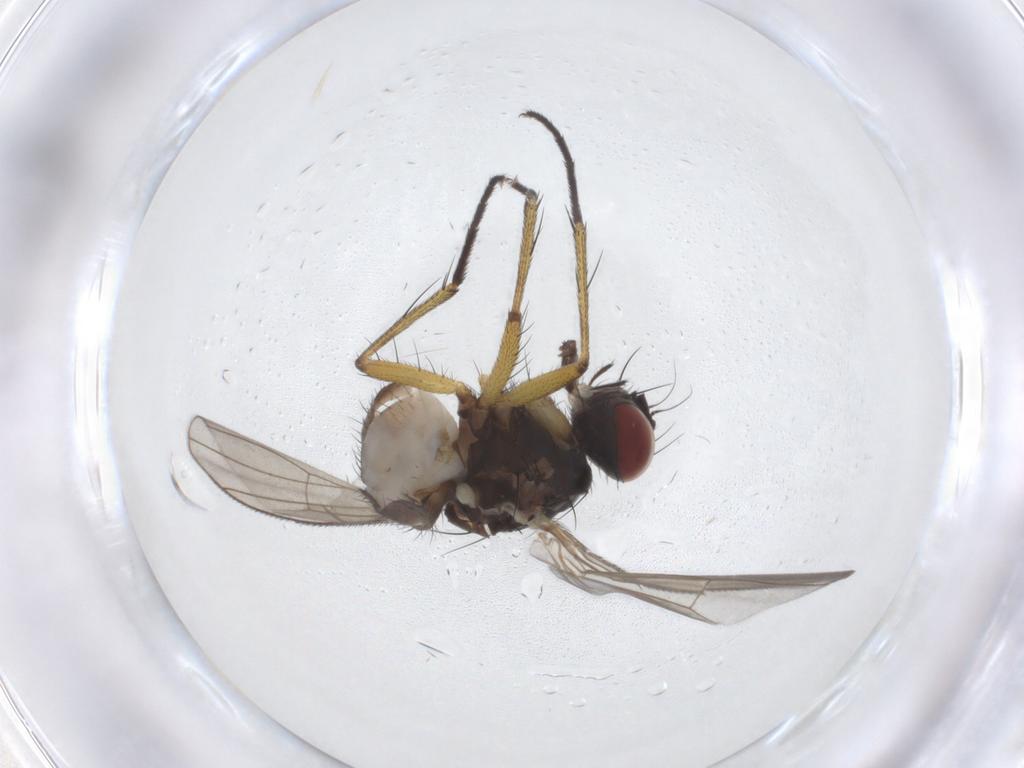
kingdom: Animalia
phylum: Arthropoda
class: Insecta
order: Diptera
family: Muscidae
